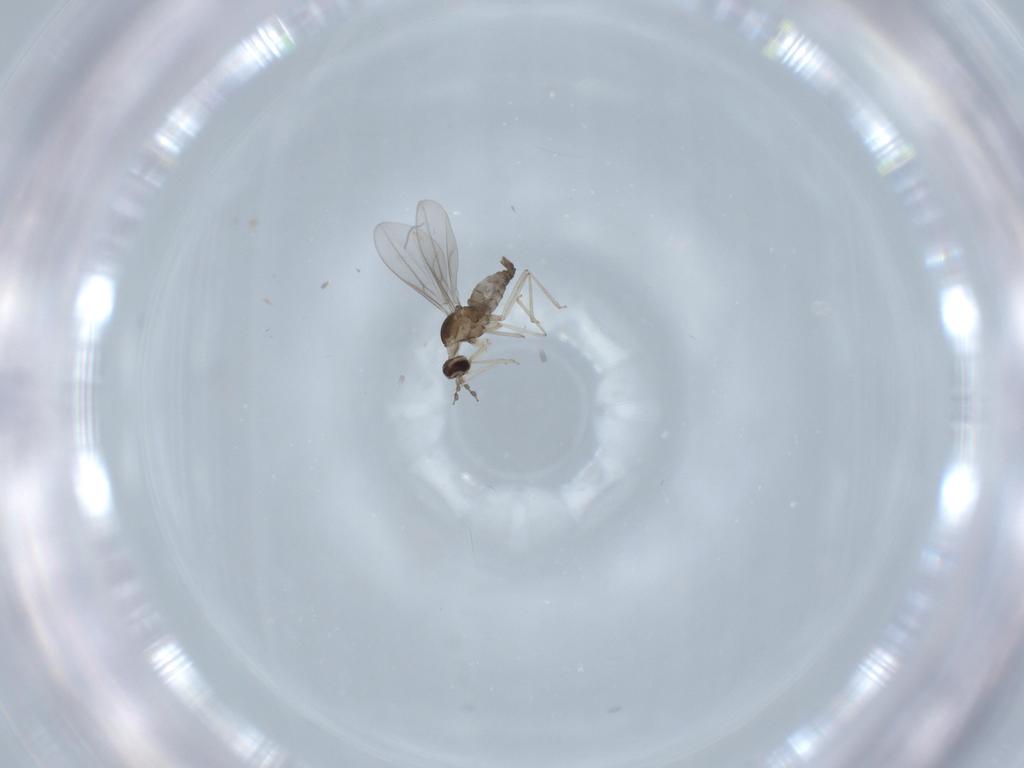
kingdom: Animalia
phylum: Arthropoda
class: Insecta
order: Diptera
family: Cecidomyiidae
